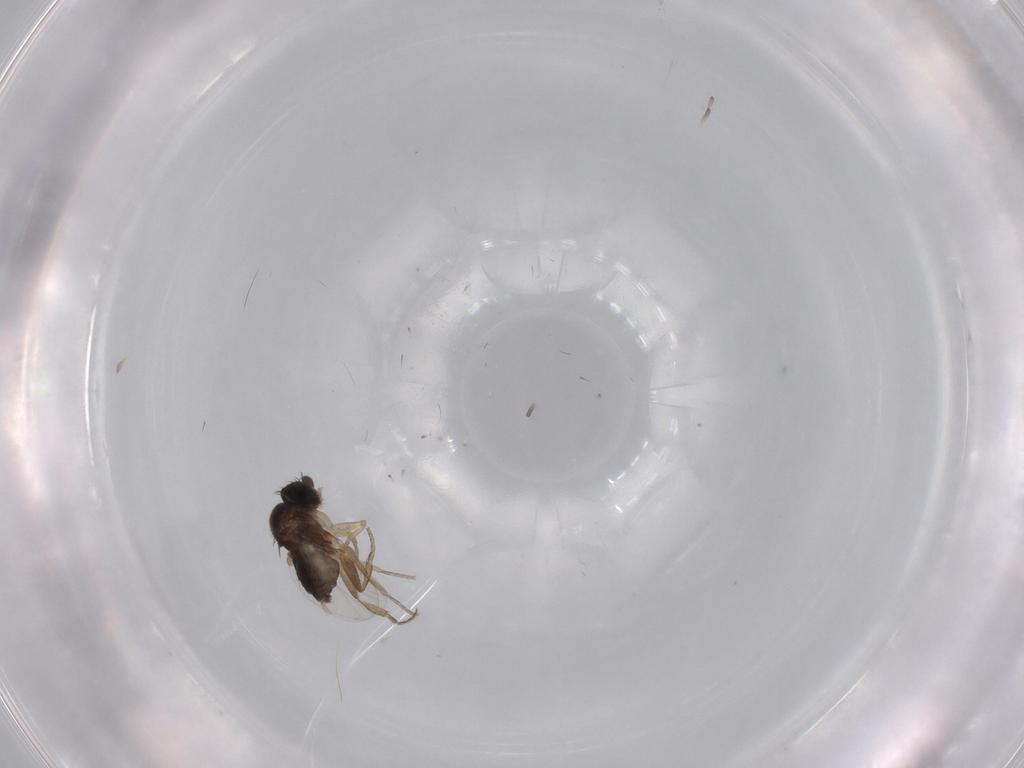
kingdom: Animalia
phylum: Arthropoda
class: Insecta
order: Diptera
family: Phoridae
